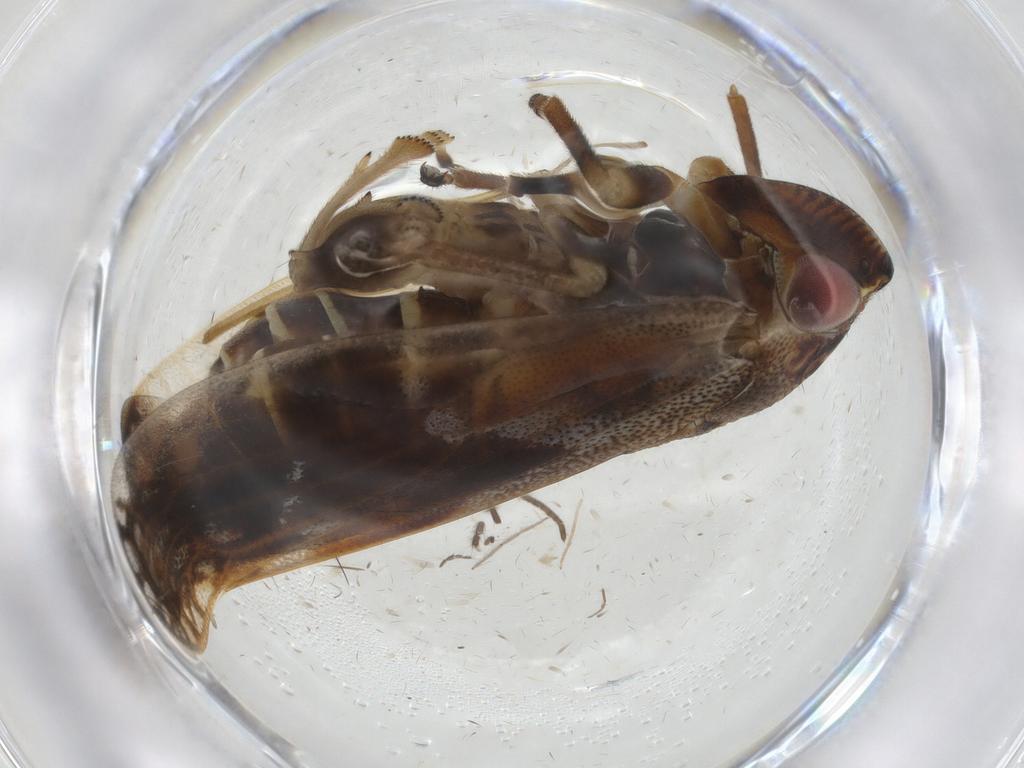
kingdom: Animalia
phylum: Arthropoda
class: Insecta
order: Hemiptera
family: Aphrophoridae
